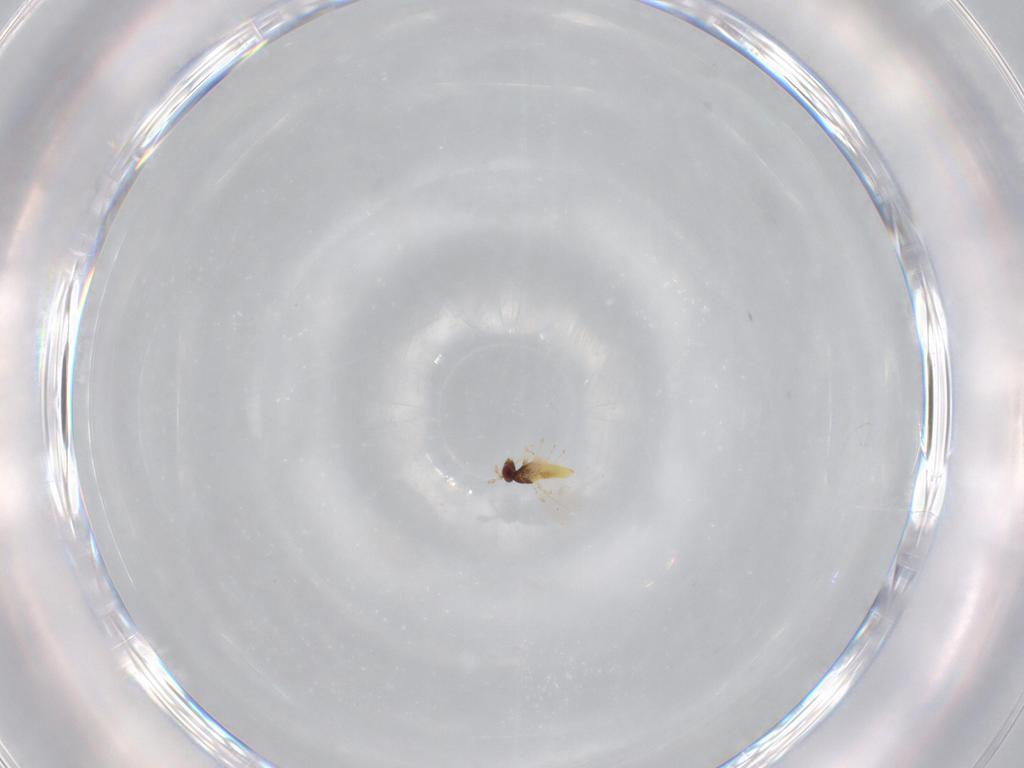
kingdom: Animalia
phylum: Arthropoda
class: Insecta
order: Hymenoptera
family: Trichogrammatidae
